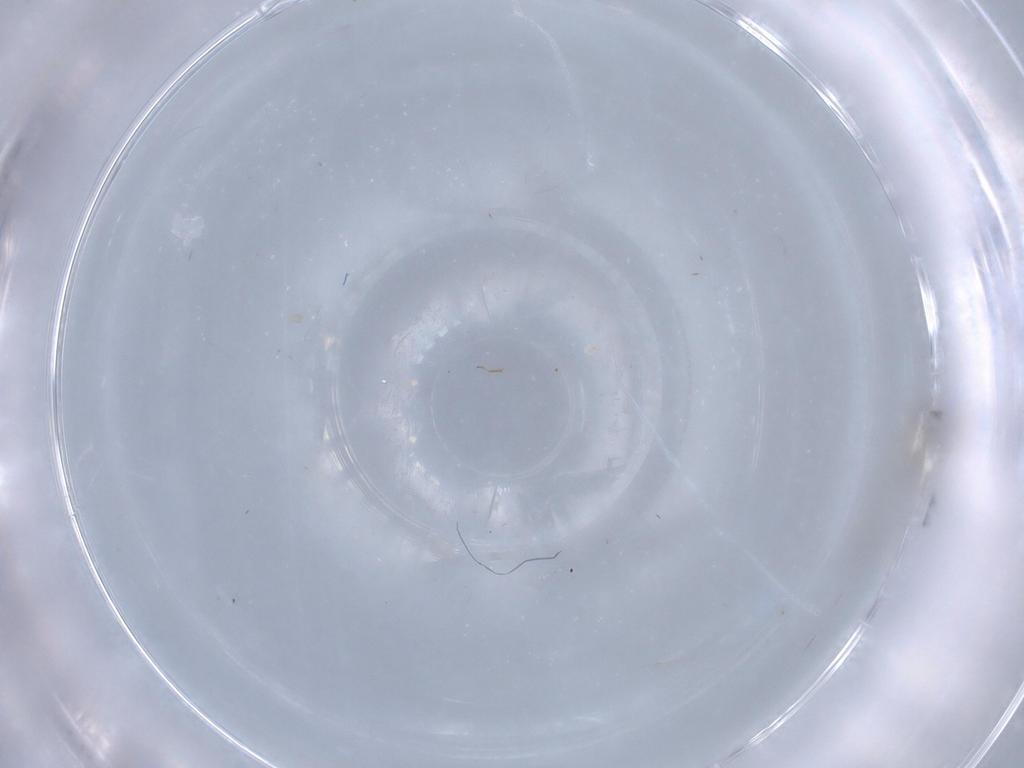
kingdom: Animalia
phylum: Arthropoda
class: Insecta
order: Diptera
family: Cecidomyiidae
